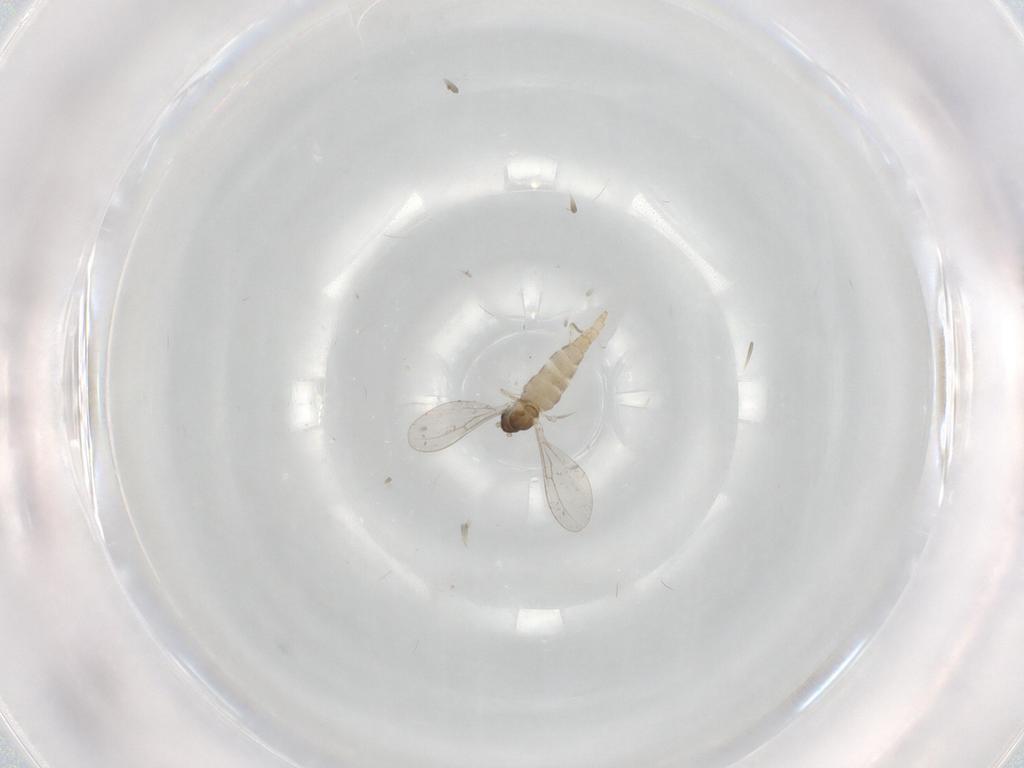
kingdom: Animalia
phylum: Arthropoda
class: Insecta
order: Diptera
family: Cecidomyiidae
